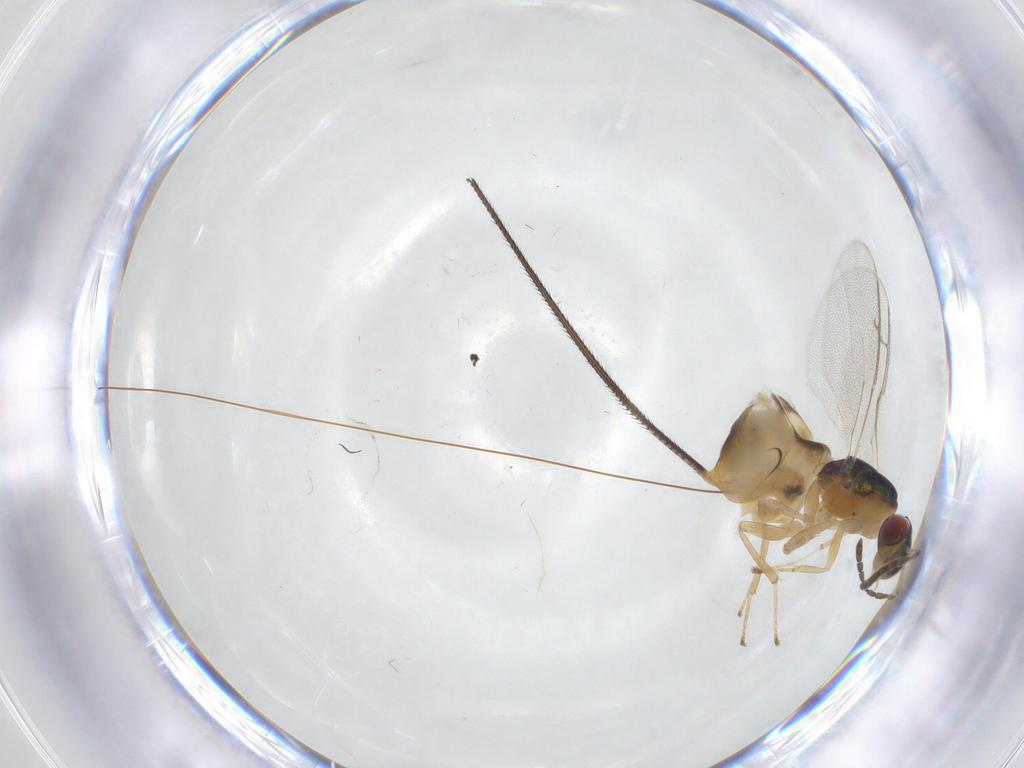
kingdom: Animalia
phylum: Arthropoda
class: Insecta
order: Hymenoptera
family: Pteromalidae
